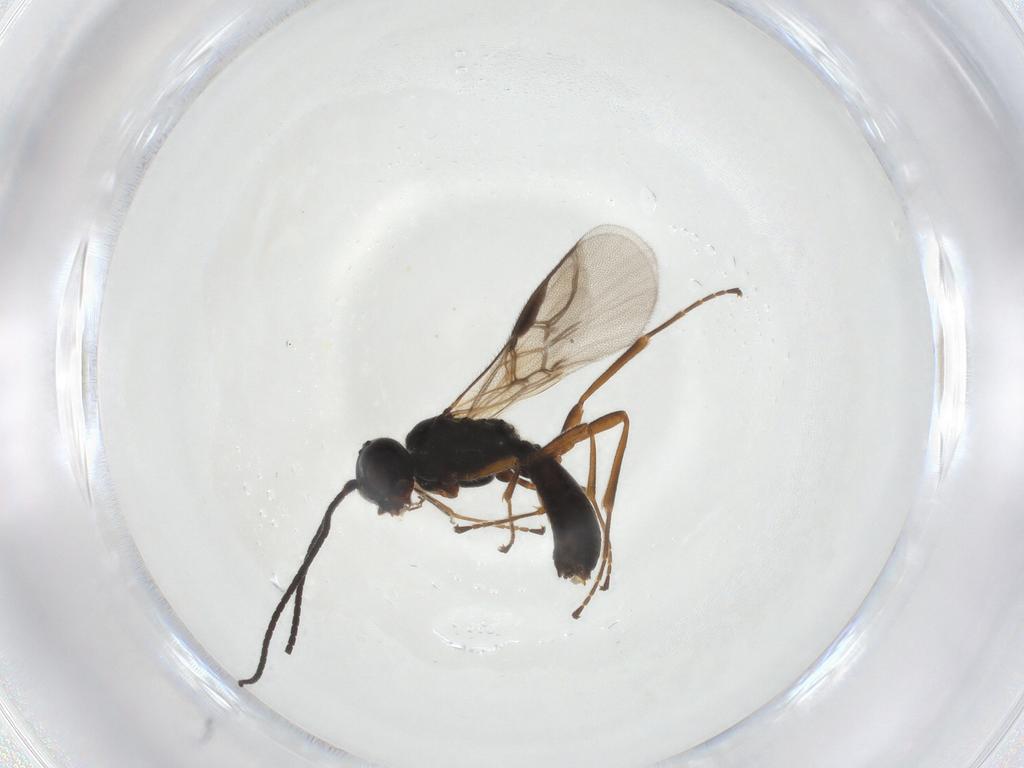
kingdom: Animalia
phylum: Arthropoda
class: Insecta
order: Hymenoptera
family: Braconidae
